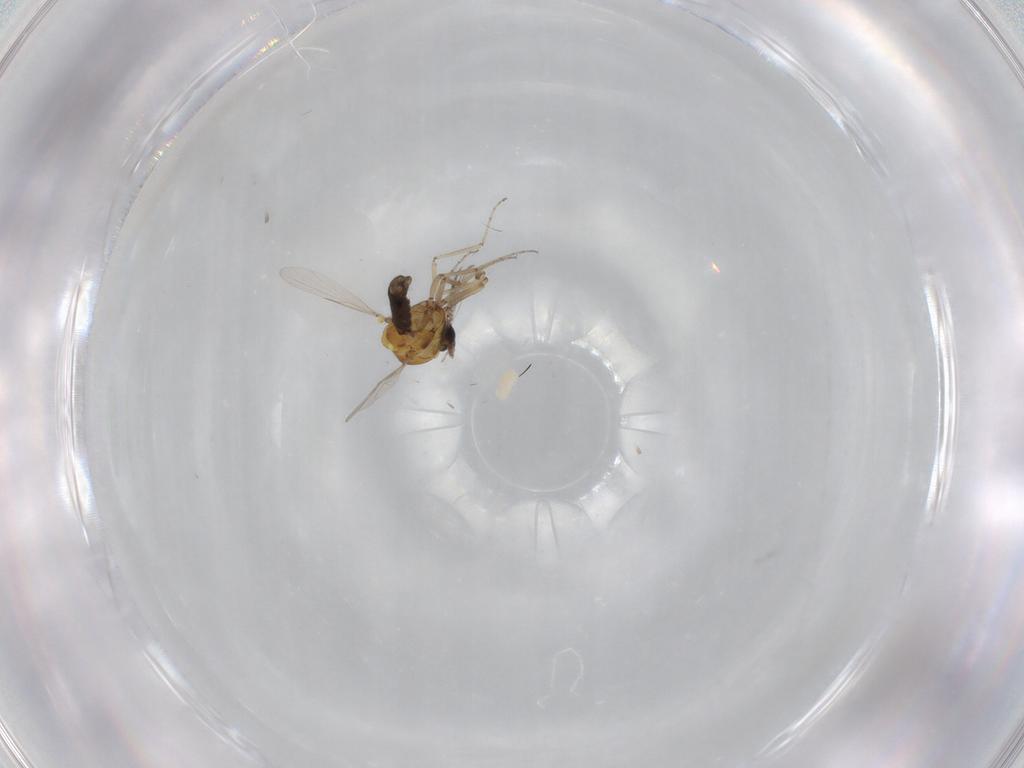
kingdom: Animalia
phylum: Arthropoda
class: Insecta
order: Diptera
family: Ceratopogonidae
